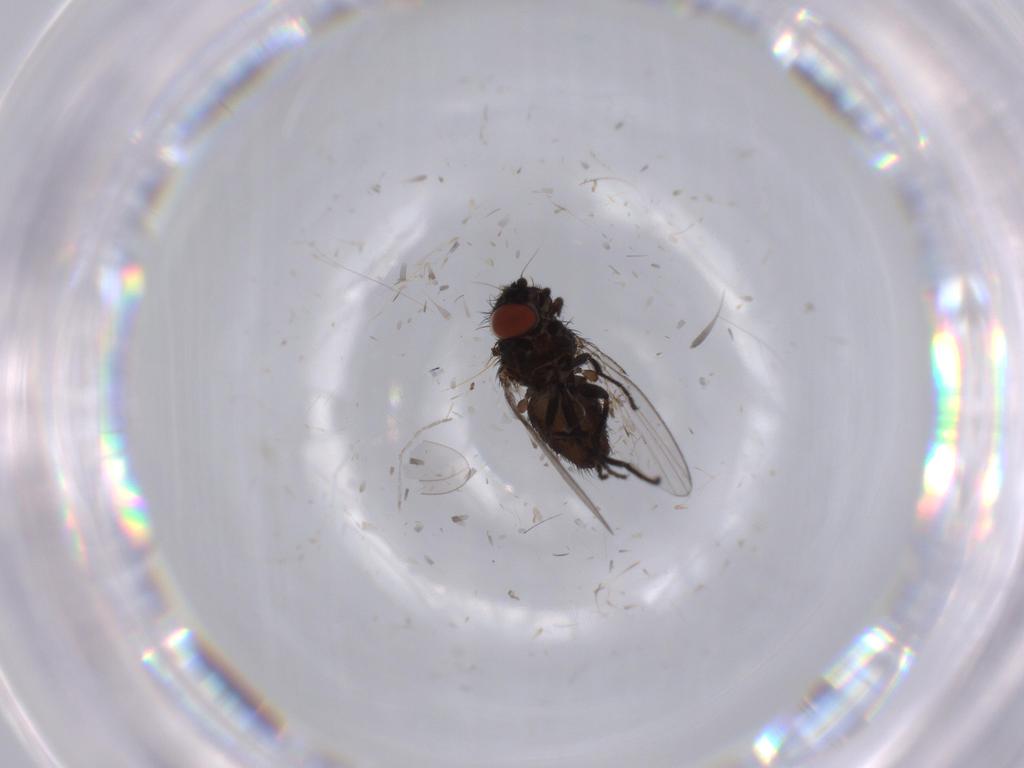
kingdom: Animalia
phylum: Arthropoda
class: Insecta
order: Diptera
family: Milichiidae
